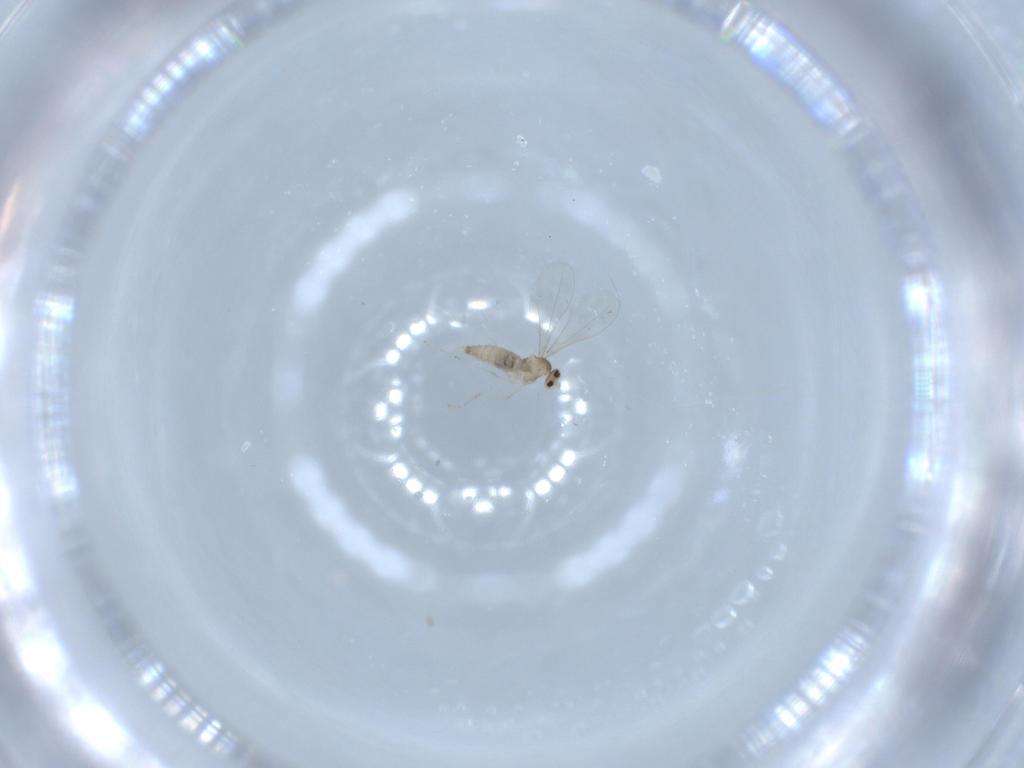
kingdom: Animalia
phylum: Arthropoda
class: Insecta
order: Diptera
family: Cecidomyiidae
